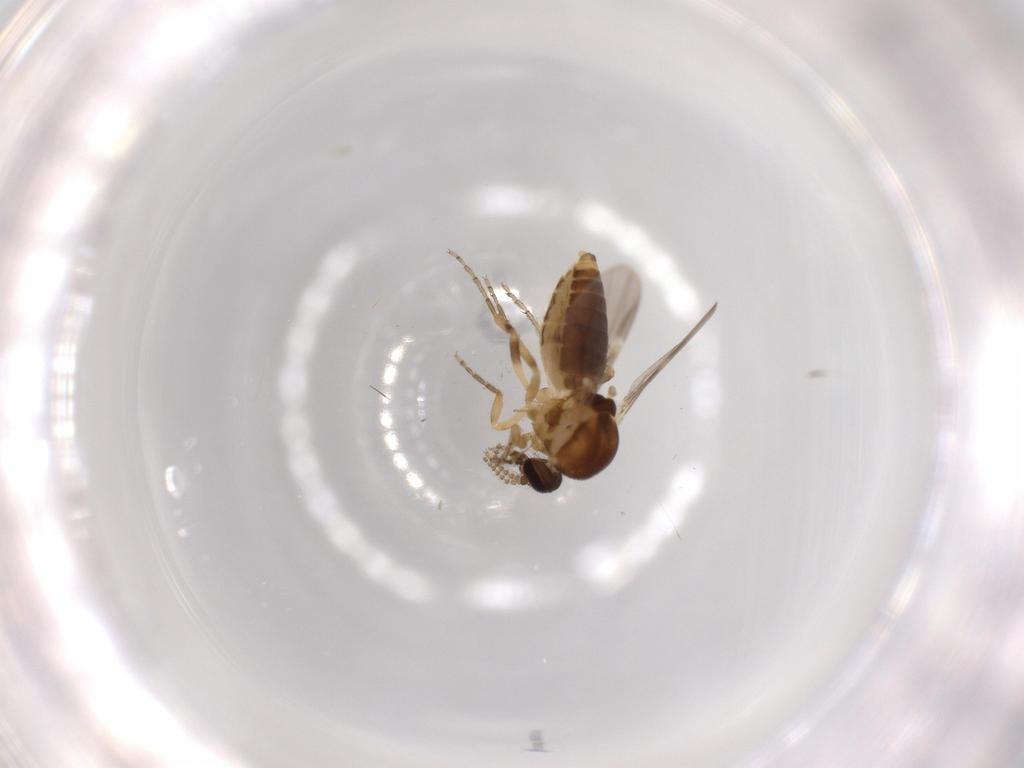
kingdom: Animalia
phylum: Arthropoda
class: Insecta
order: Diptera
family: Ceratopogonidae
